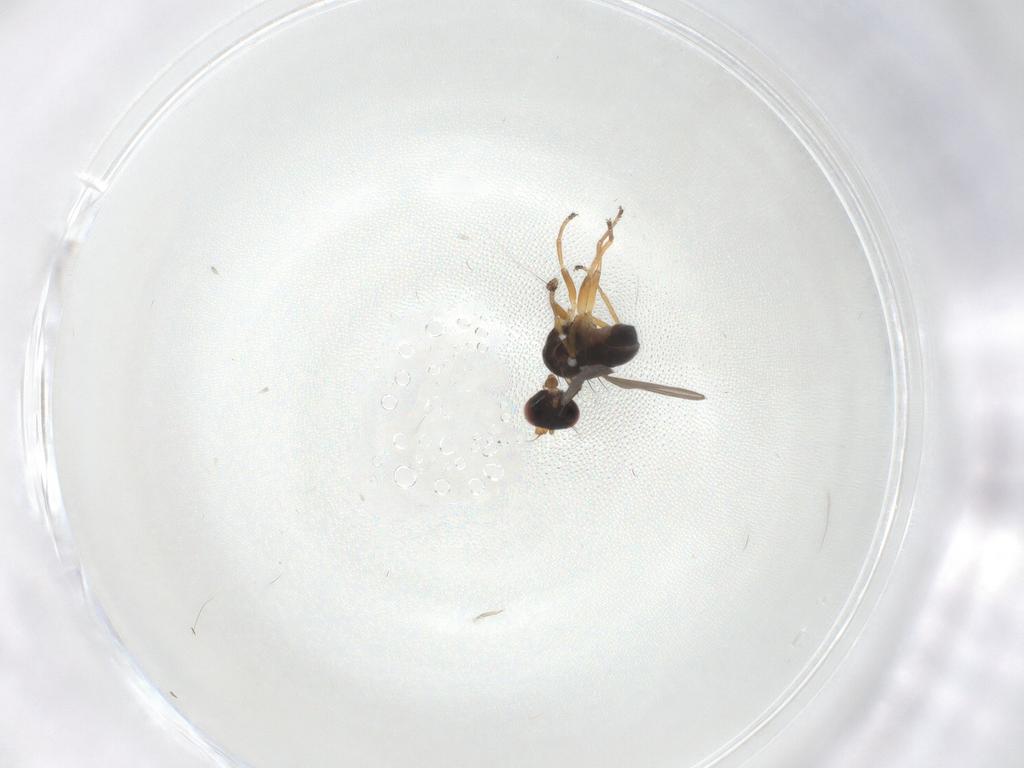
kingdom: Animalia
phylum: Arthropoda
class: Insecta
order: Diptera
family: Ephydridae
